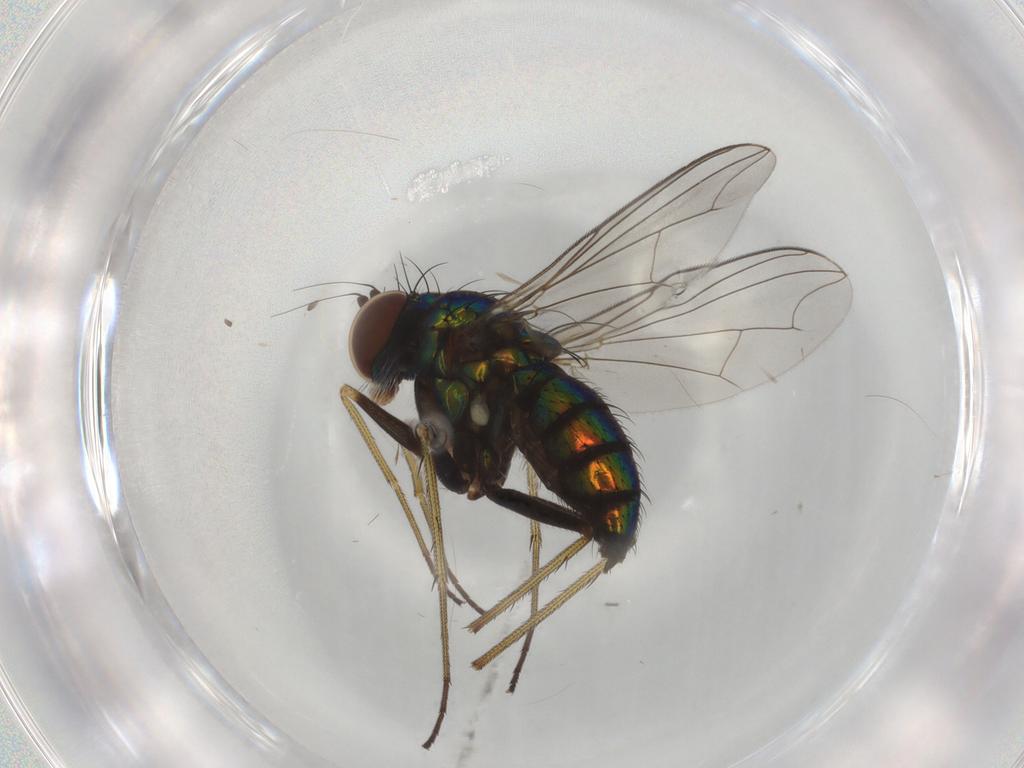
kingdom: Animalia
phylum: Arthropoda
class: Insecta
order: Diptera
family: Dolichopodidae
